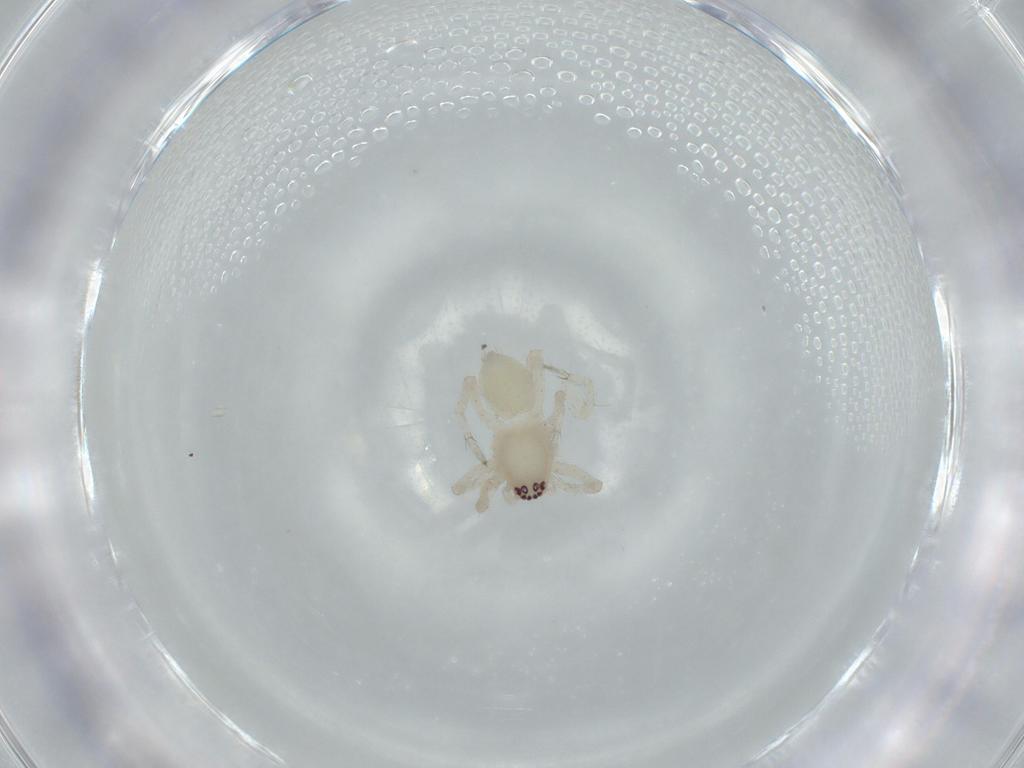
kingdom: Animalia
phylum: Arthropoda
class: Arachnida
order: Araneae
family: Amaurobiidae
